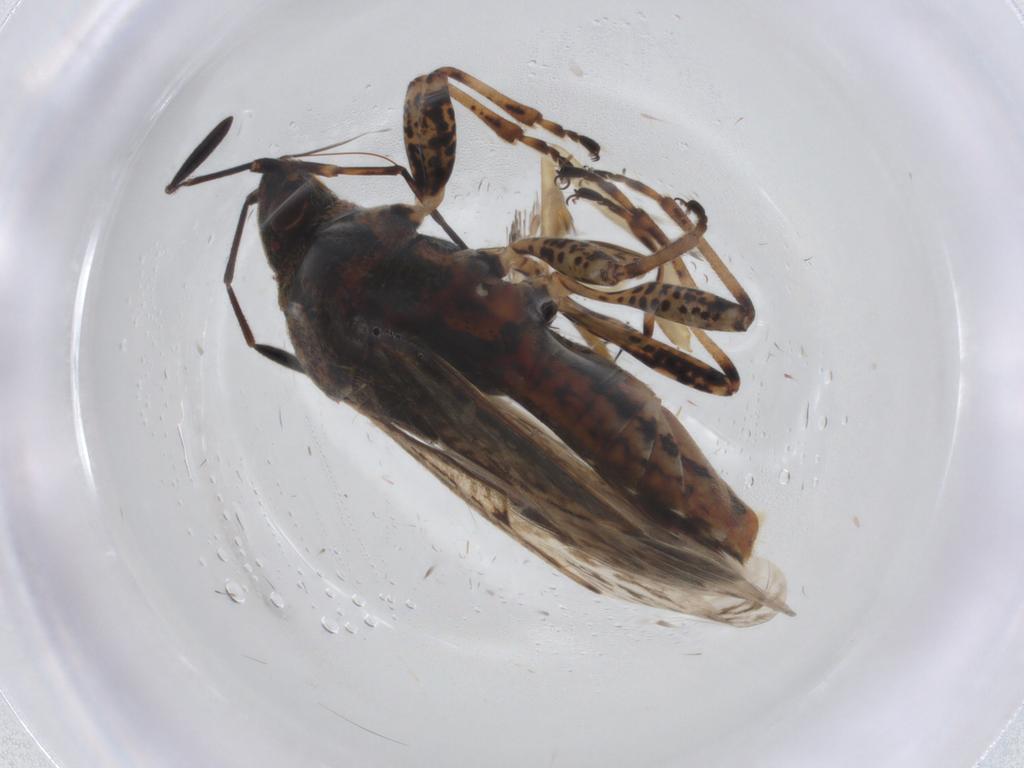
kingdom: Animalia
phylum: Arthropoda
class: Insecta
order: Hemiptera
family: Lygaeidae
